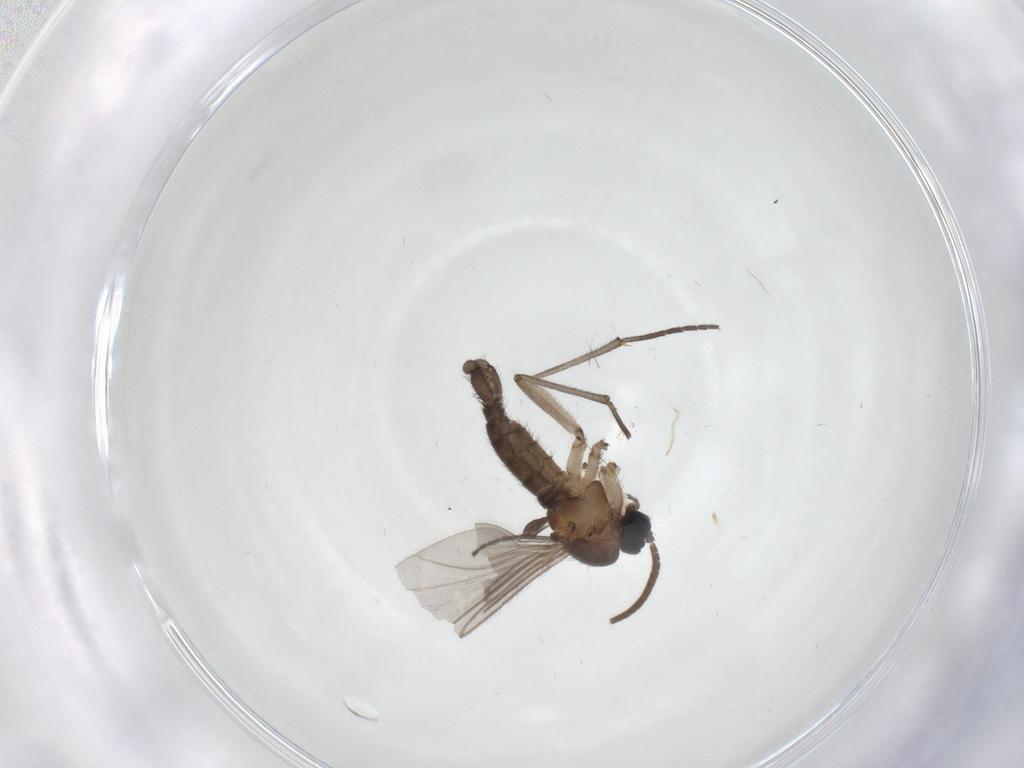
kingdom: Animalia
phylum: Arthropoda
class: Insecta
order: Diptera
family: Cecidomyiidae
